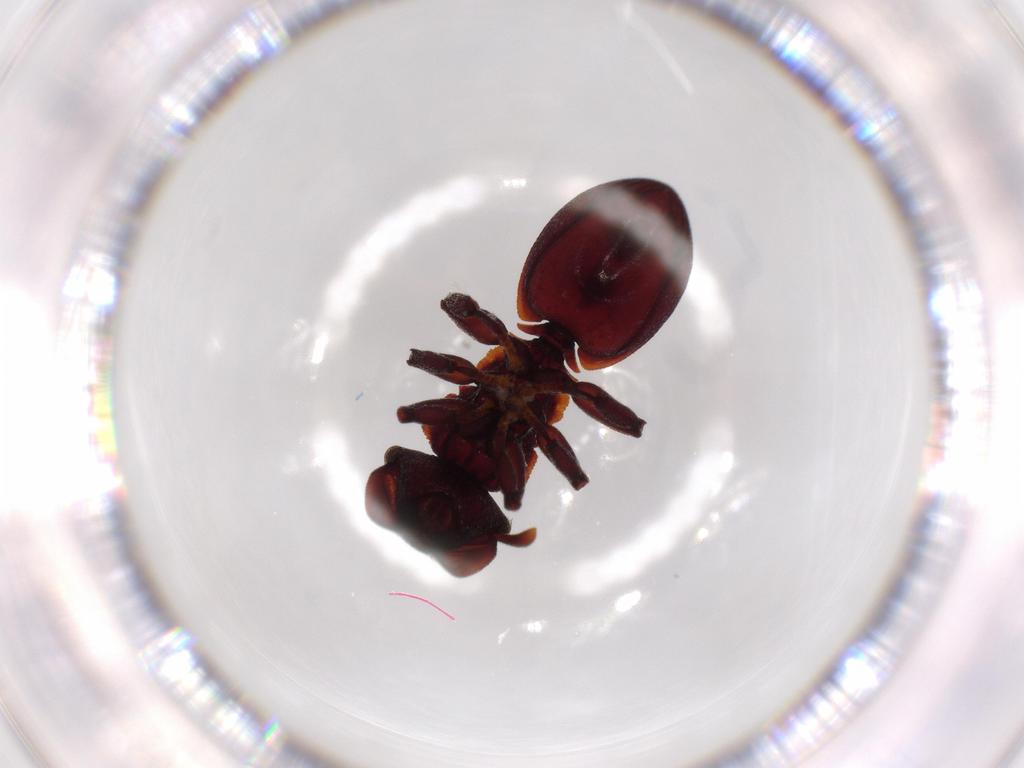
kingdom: Animalia
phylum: Arthropoda
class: Insecta
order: Hymenoptera
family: Formicidae
